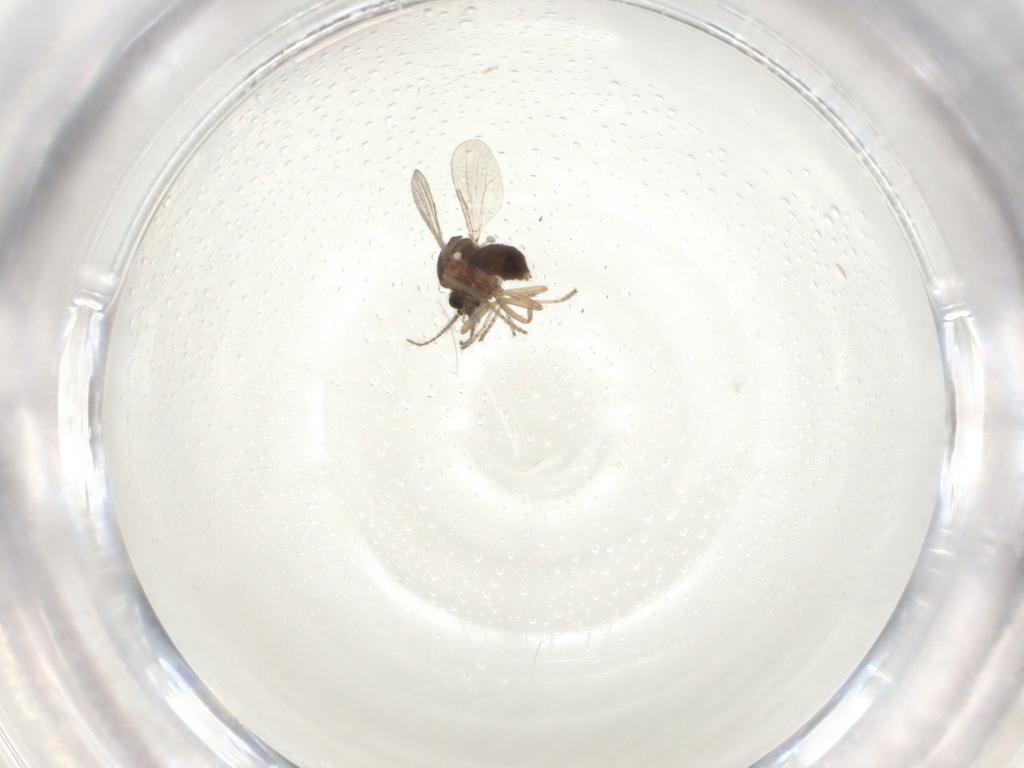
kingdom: Animalia
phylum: Arthropoda
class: Insecta
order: Diptera
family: Ceratopogonidae
